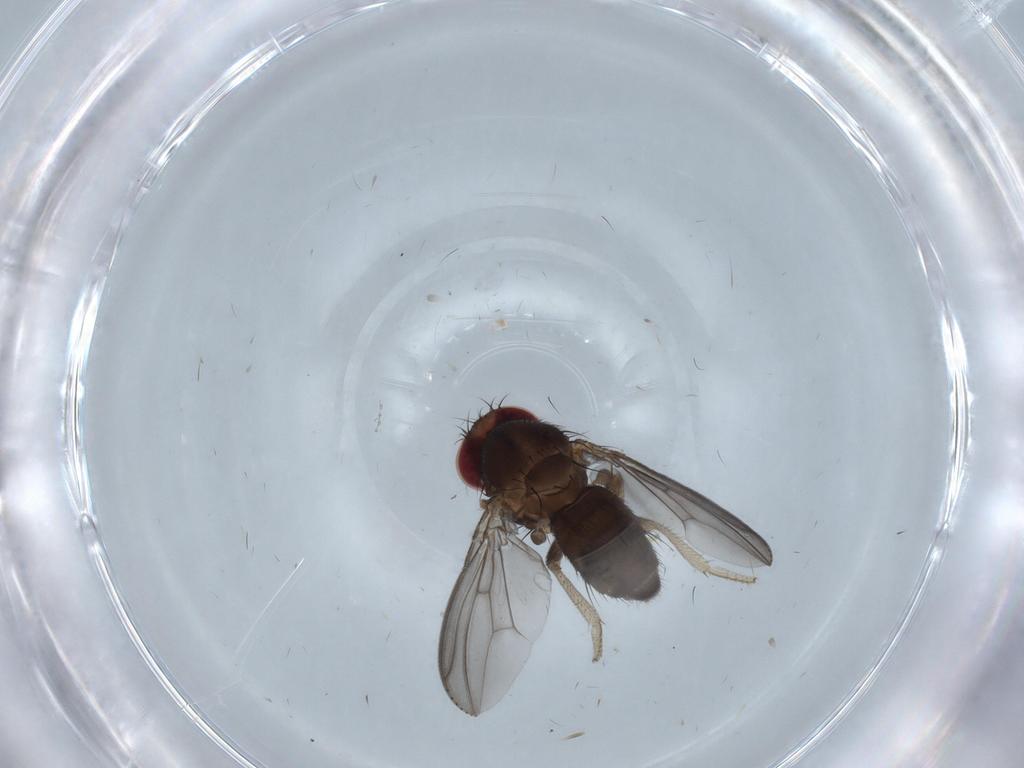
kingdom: Animalia
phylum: Arthropoda
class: Insecta
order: Diptera
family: Drosophilidae
